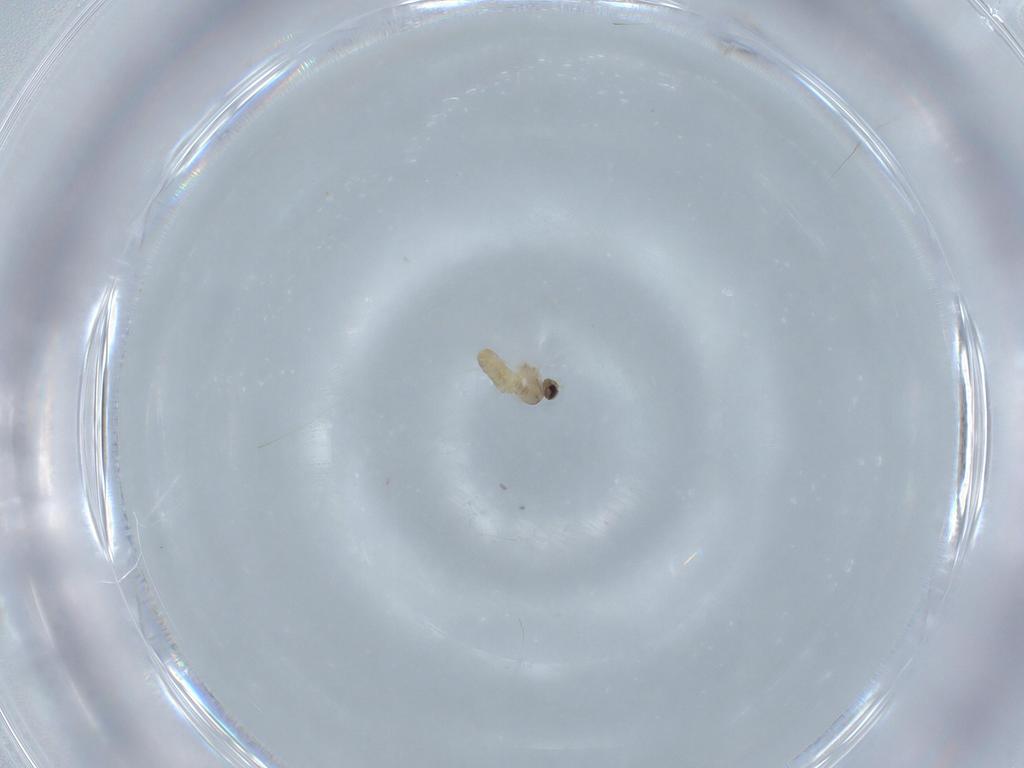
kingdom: Animalia
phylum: Arthropoda
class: Insecta
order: Diptera
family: Cecidomyiidae
